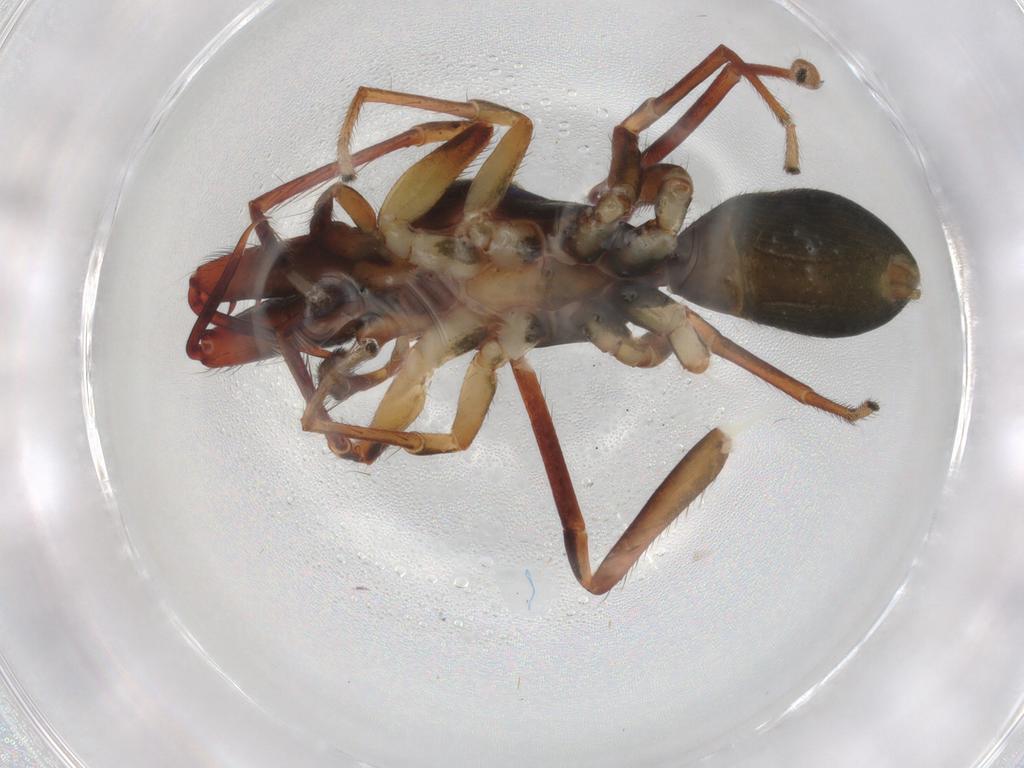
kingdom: Animalia
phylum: Arthropoda
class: Arachnida
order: Araneae
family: Salticidae
